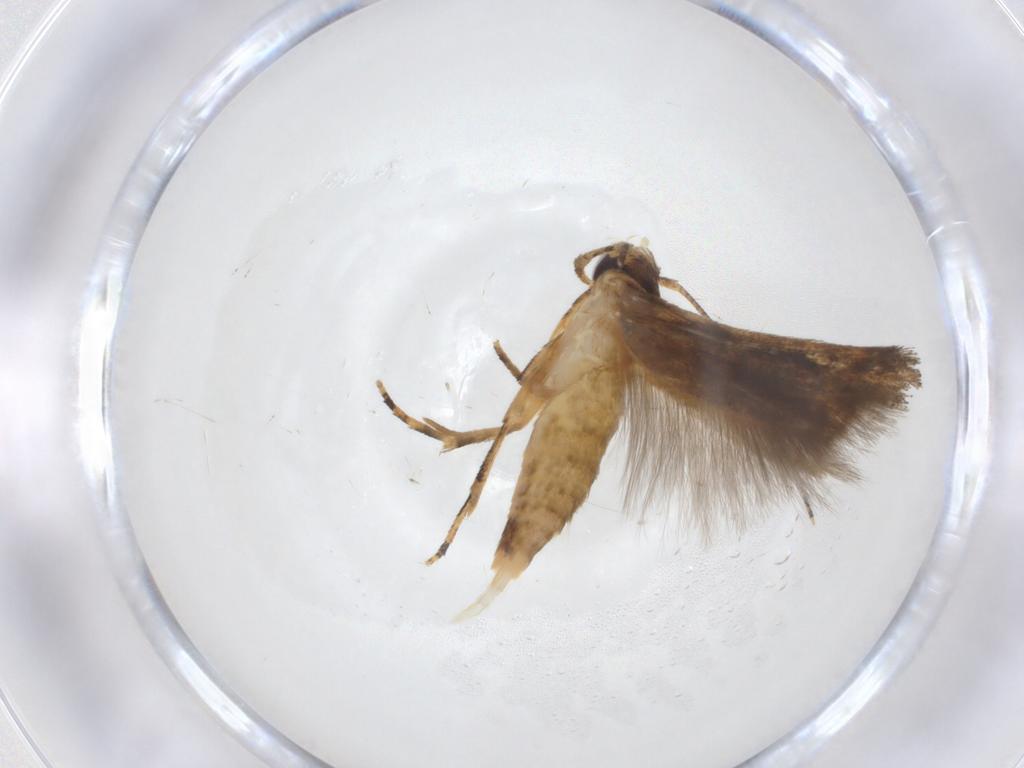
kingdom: Animalia
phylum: Arthropoda
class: Insecta
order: Lepidoptera
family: Momphidae
